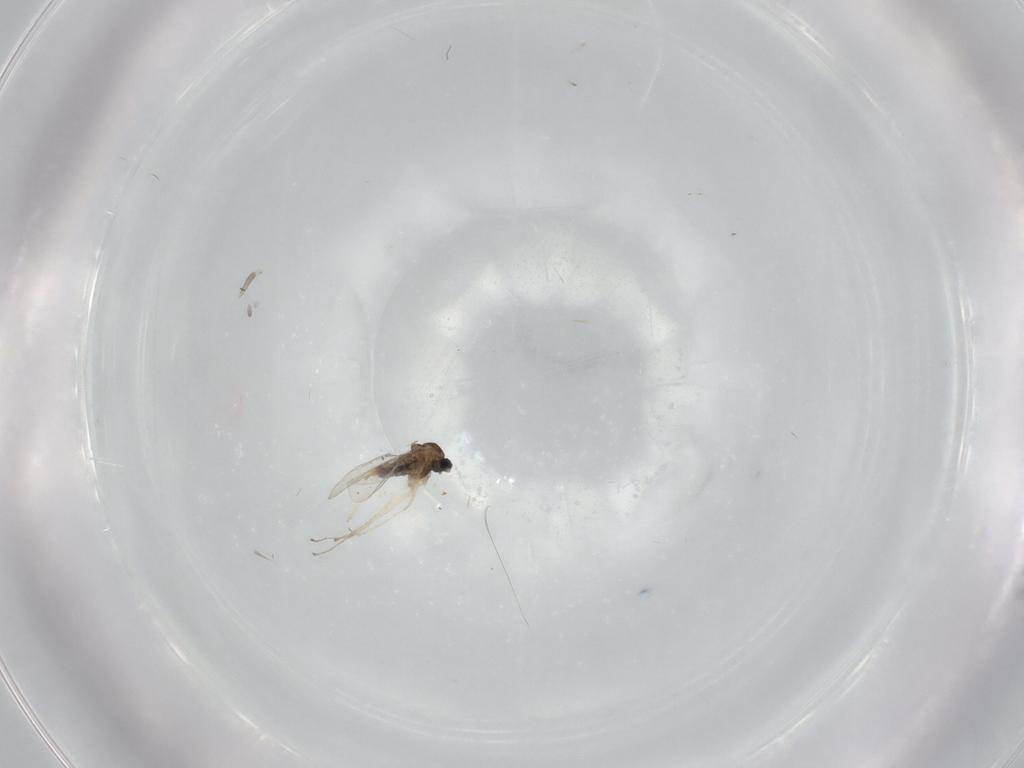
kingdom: Animalia
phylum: Arthropoda
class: Insecta
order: Diptera
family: Cecidomyiidae
